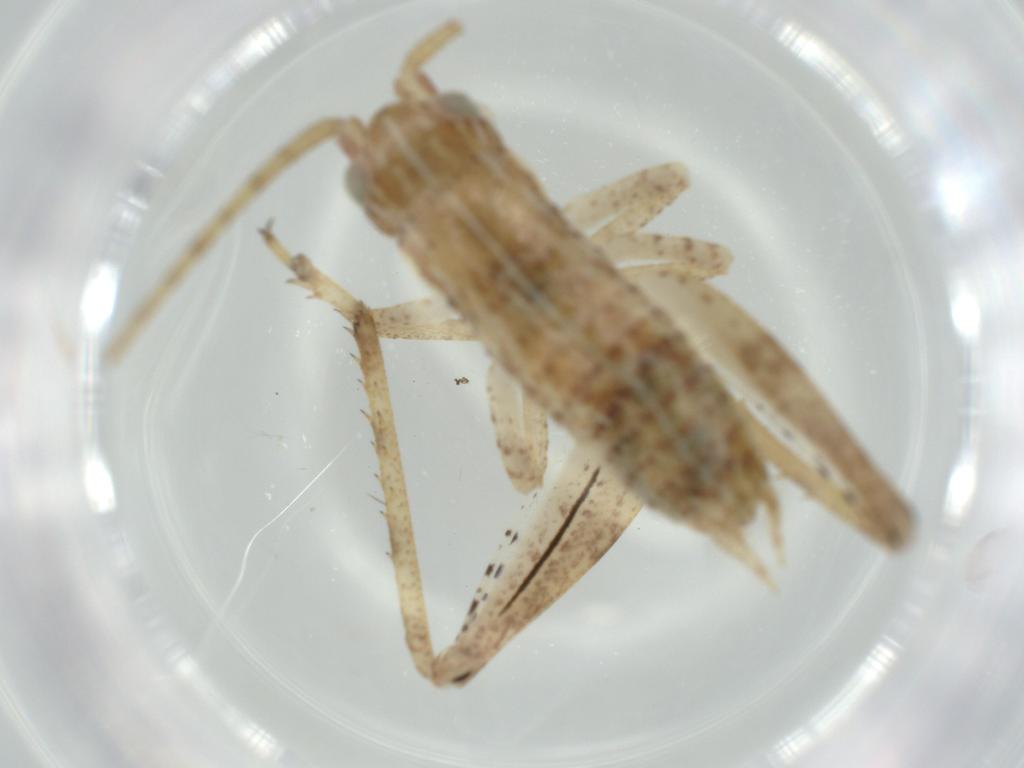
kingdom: Animalia
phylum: Arthropoda
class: Insecta
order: Orthoptera
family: Gryllidae
